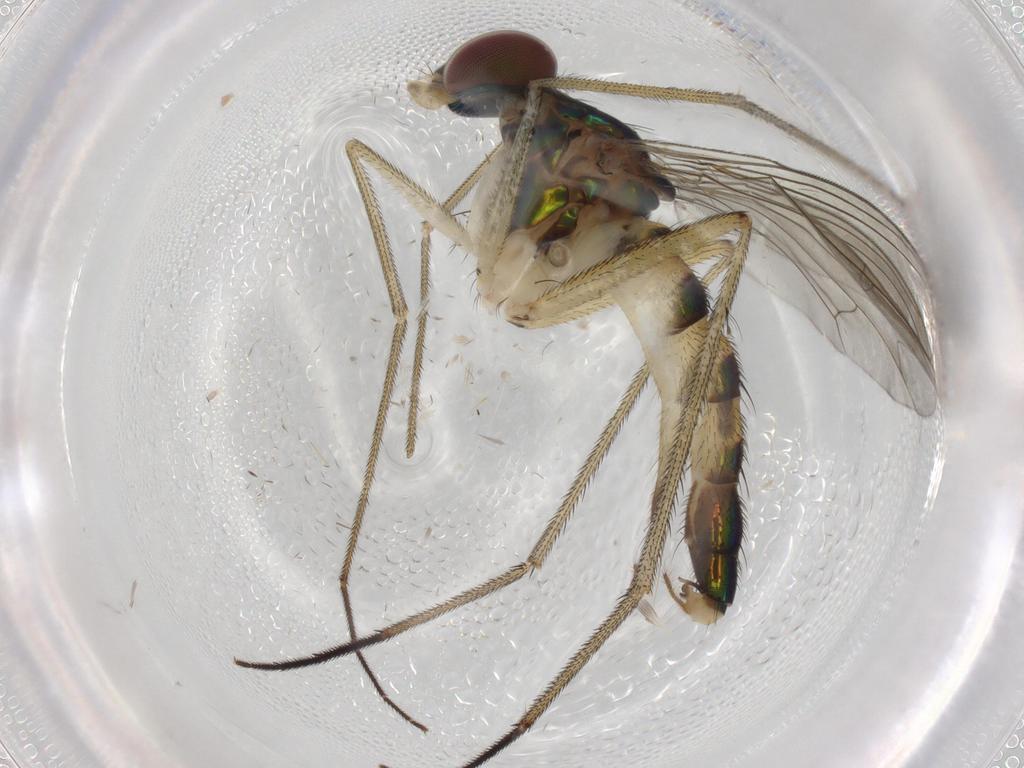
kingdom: Animalia
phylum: Arthropoda
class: Insecta
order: Diptera
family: Dolichopodidae
